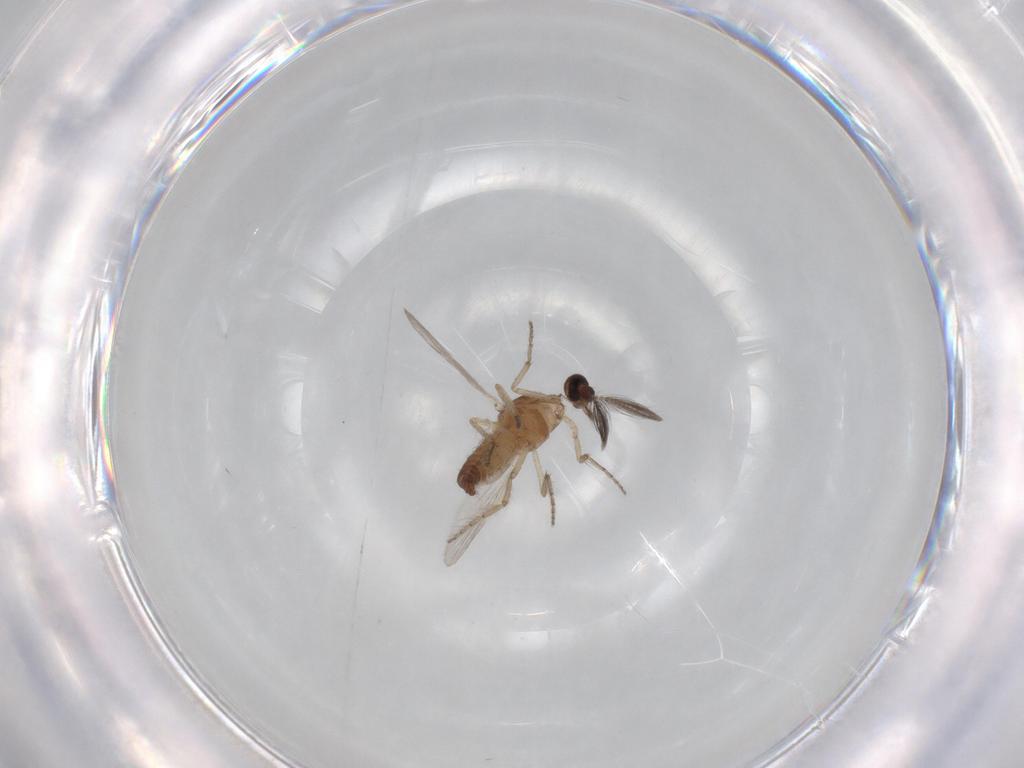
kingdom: Animalia
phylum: Arthropoda
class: Insecta
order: Diptera
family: Ceratopogonidae
